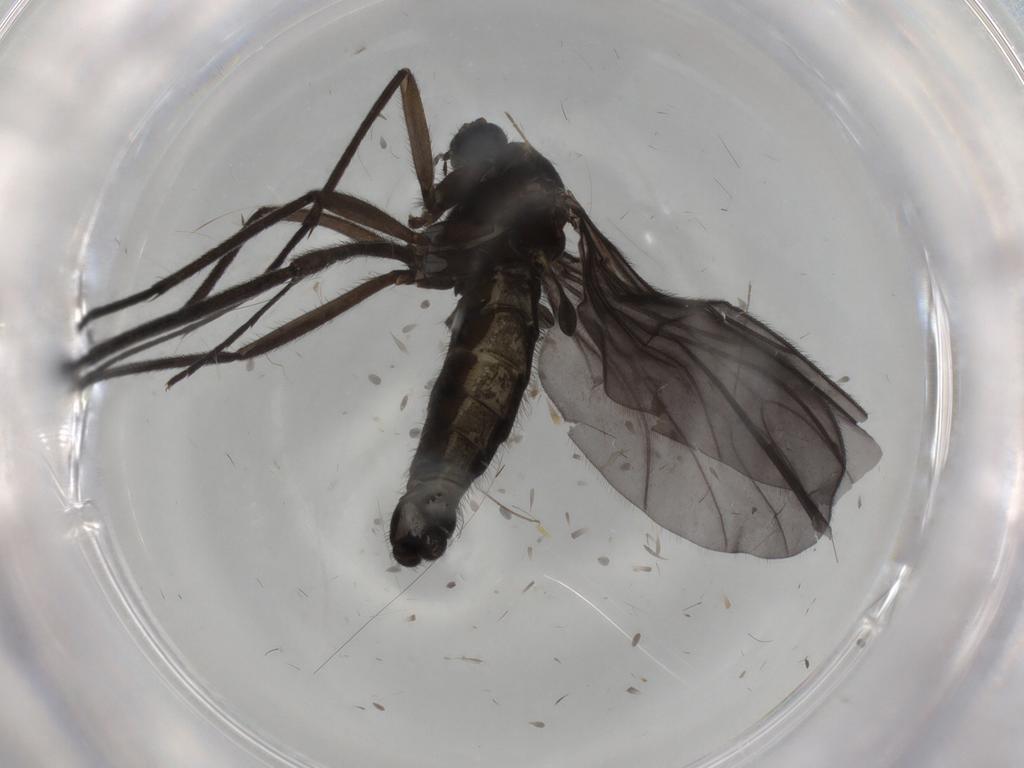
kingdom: Animalia
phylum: Arthropoda
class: Insecta
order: Diptera
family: Sciaridae
